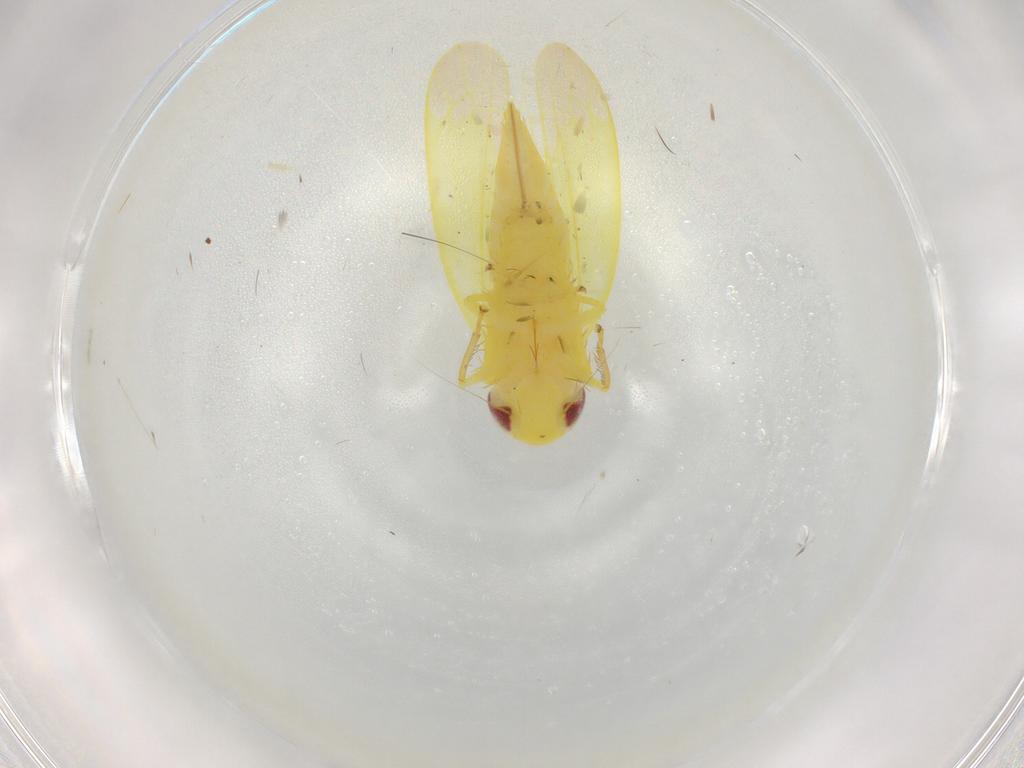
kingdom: Animalia
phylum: Arthropoda
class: Insecta
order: Hemiptera
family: Cicadellidae
